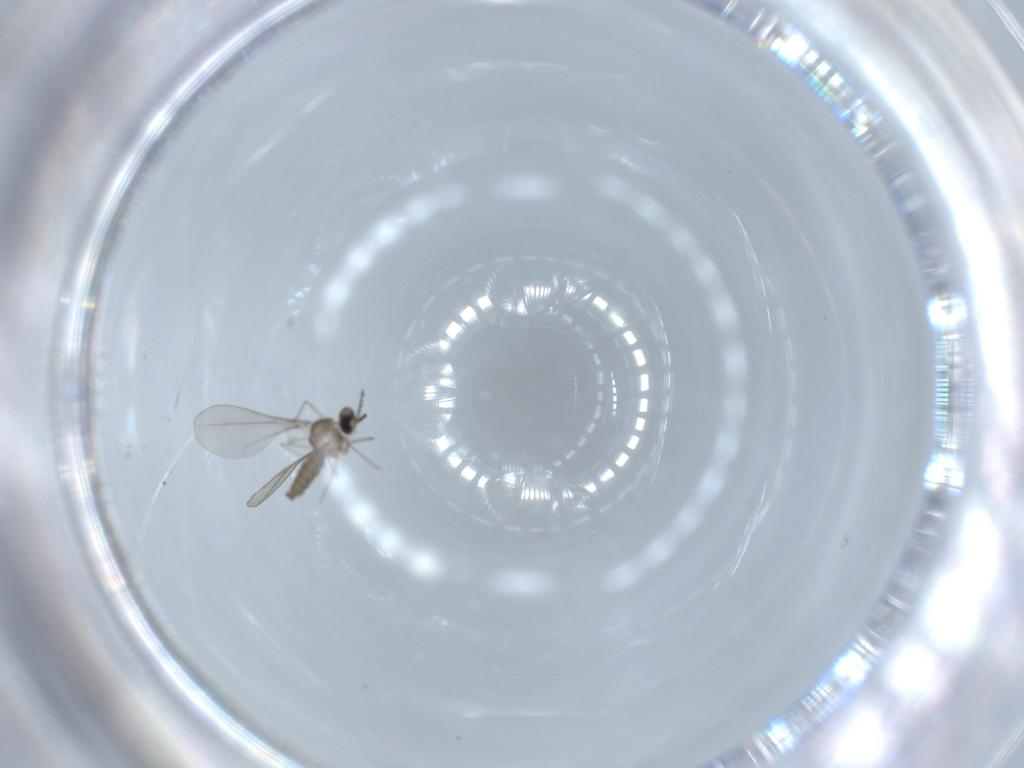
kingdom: Animalia
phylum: Arthropoda
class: Insecta
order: Diptera
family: Cecidomyiidae
